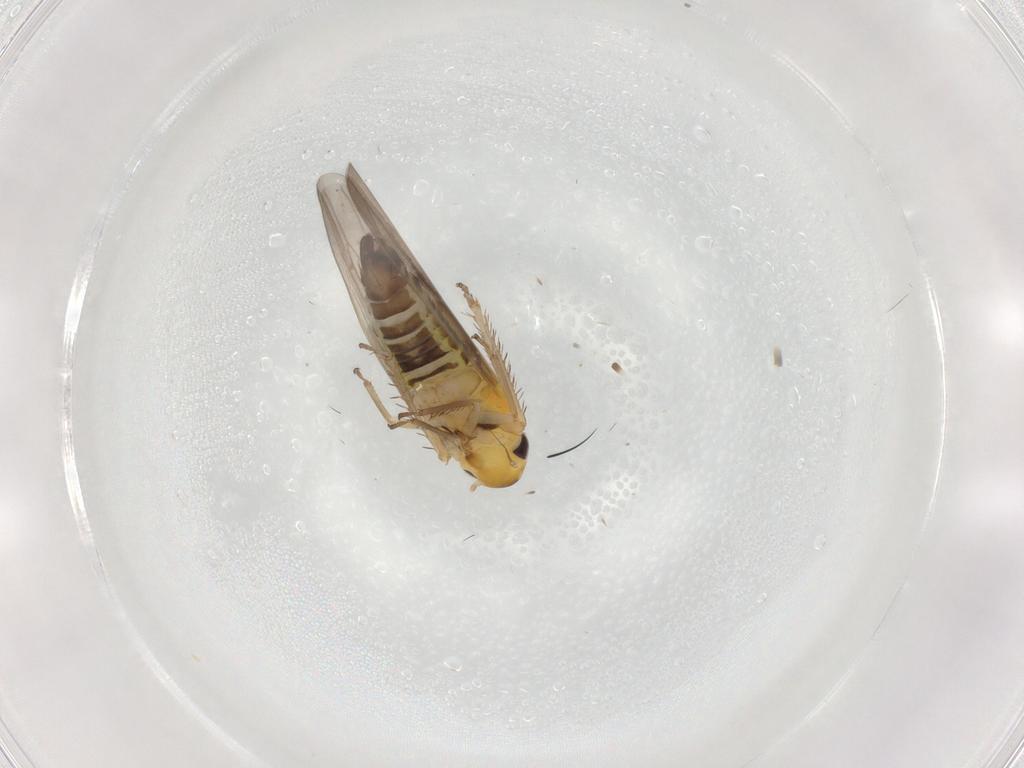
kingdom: Animalia
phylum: Arthropoda
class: Insecta
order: Hemiptera
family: Cicadellidae
